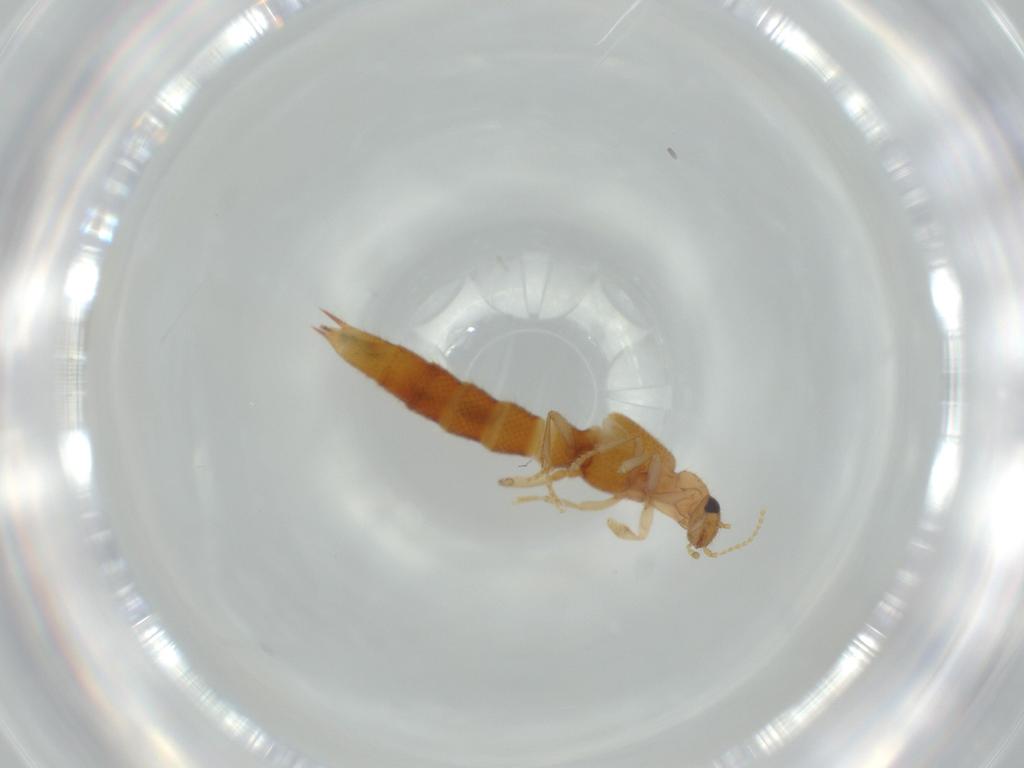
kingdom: Animalia
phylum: Arthropoda
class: Insecta
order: Coleoptera
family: Staphylinidae
